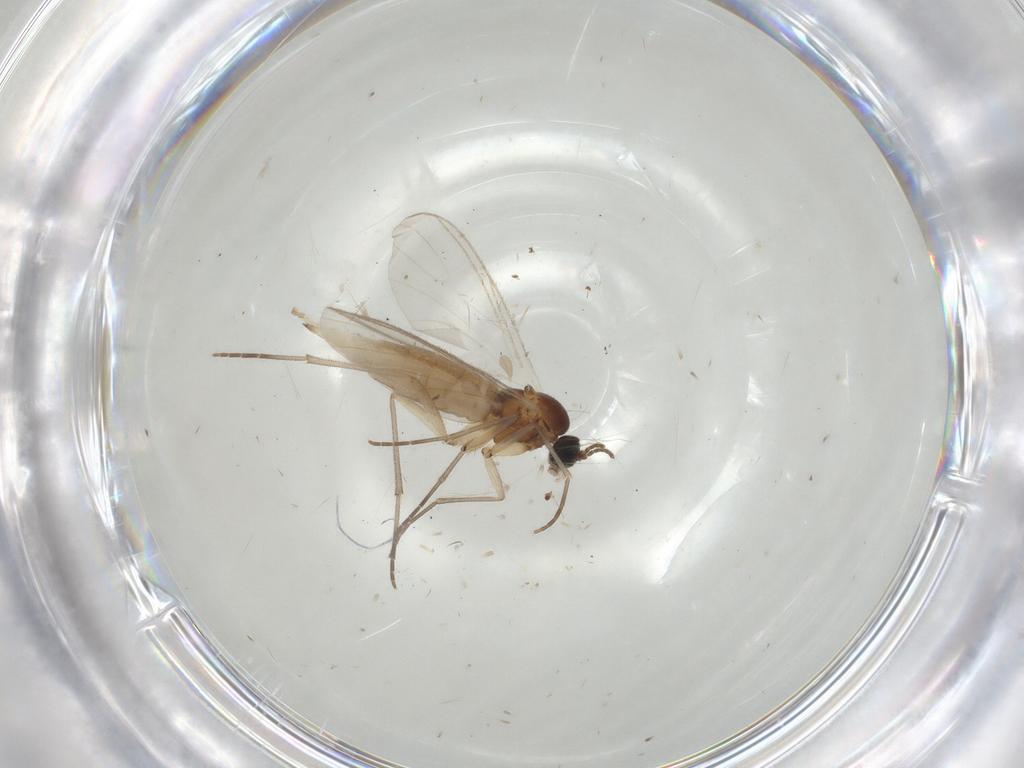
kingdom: Animalia
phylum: Arthropoda
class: Insecta
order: Diptera
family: Sciaridae
